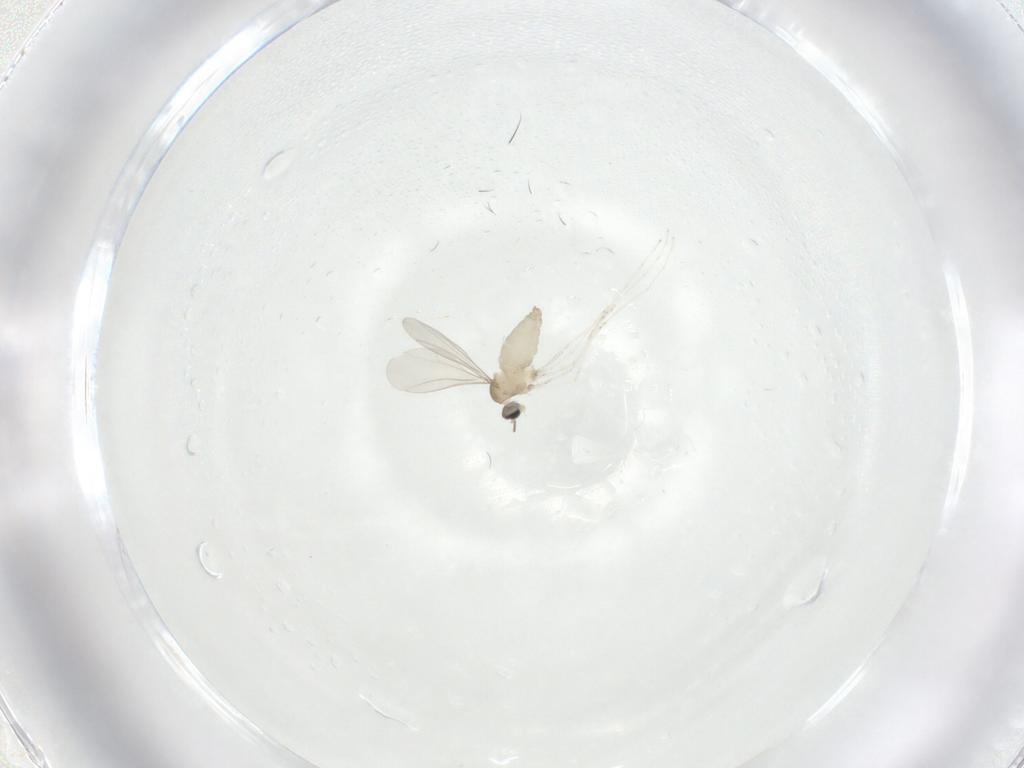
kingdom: Animalia
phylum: Arthropoda
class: Insecta
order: Diptera
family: Cecidomyiidae
